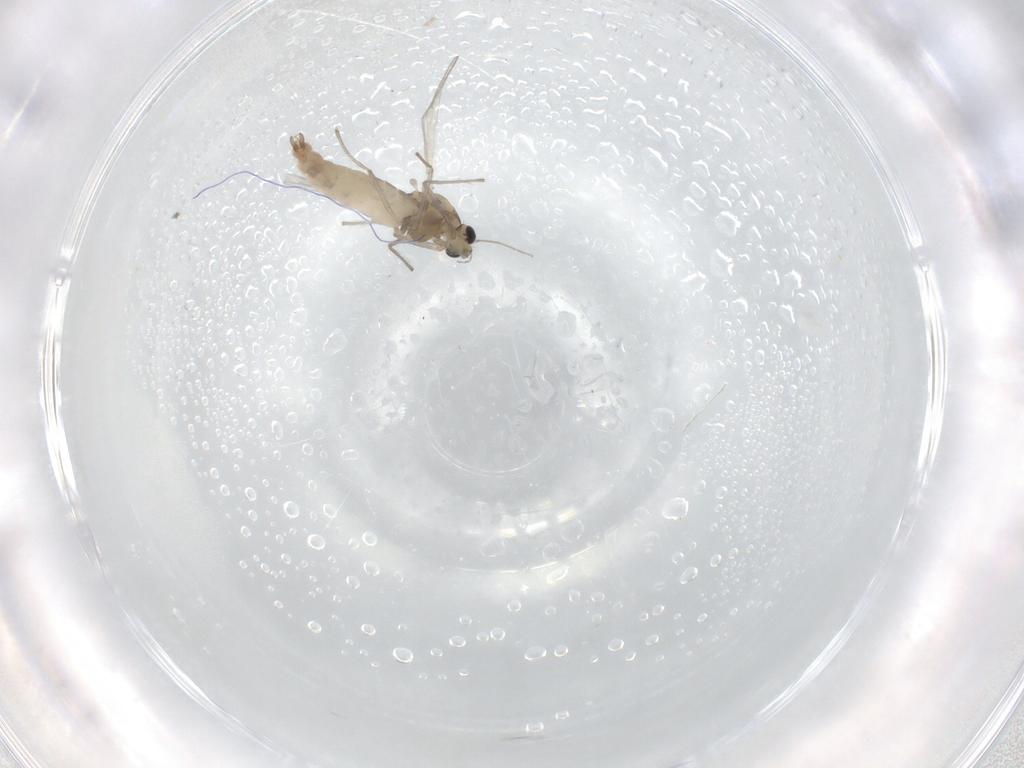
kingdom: Animalia
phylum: Arthropoda
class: Insecta
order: Diptera
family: Chironomidae
